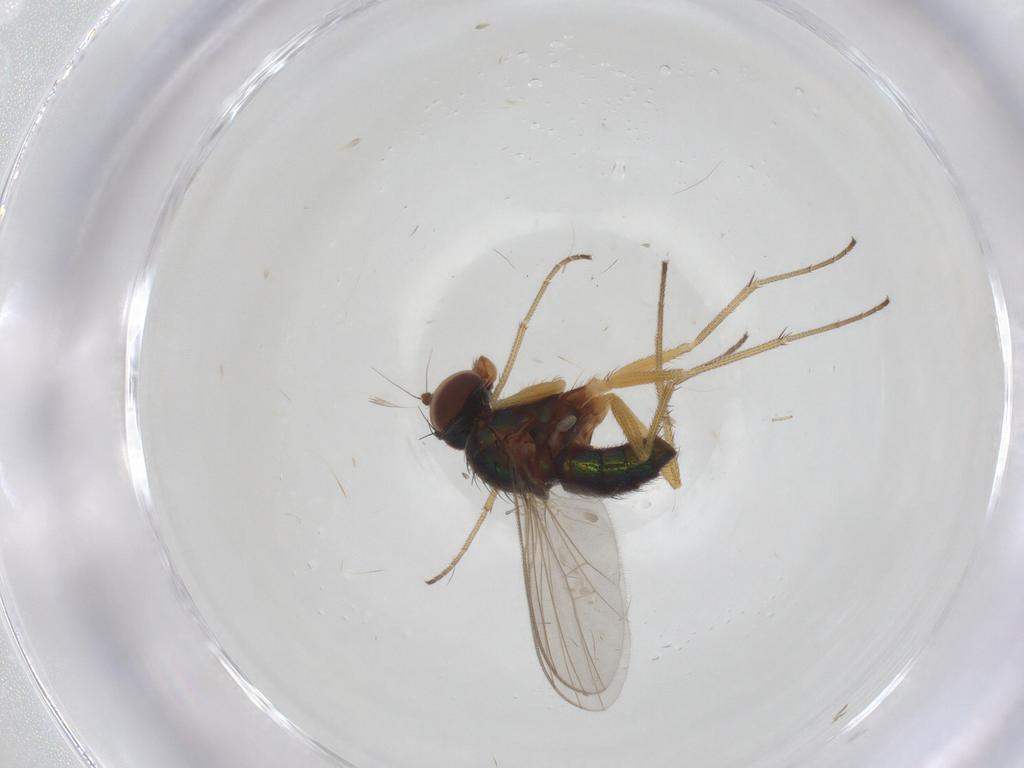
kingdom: Animalia
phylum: Arthropoda
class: Insecta
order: Diptera
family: Dolichopodidae
